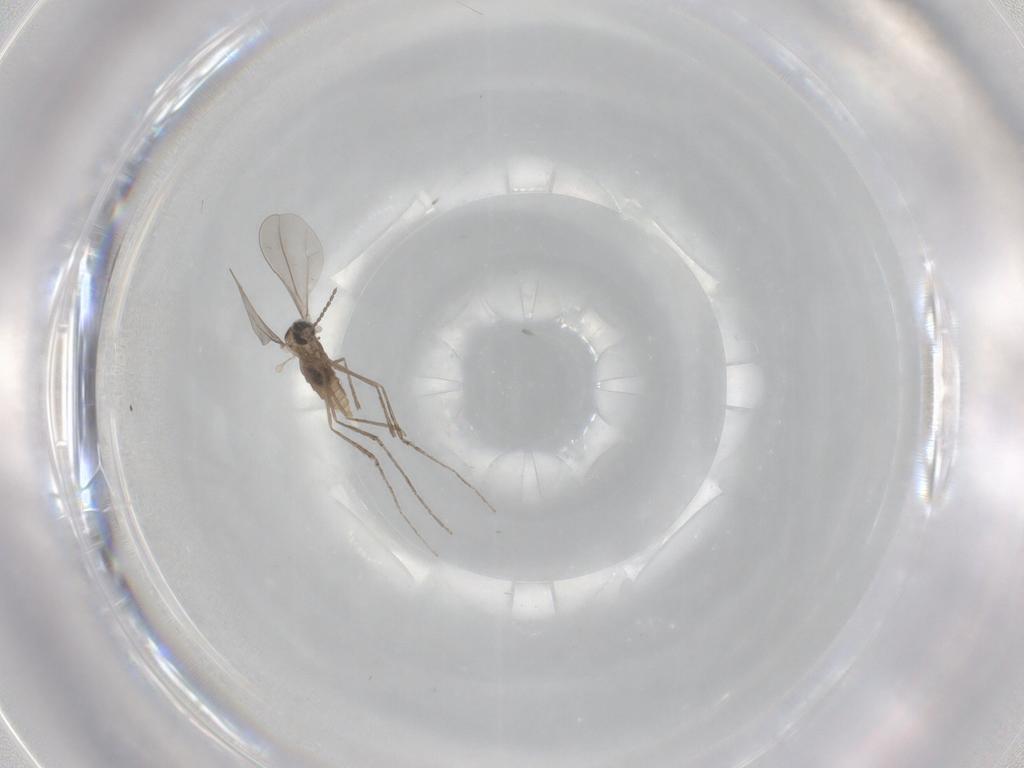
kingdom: Animalia
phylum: Arthropoda
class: Insecta
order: Diptera
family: Cecidomyiidae
